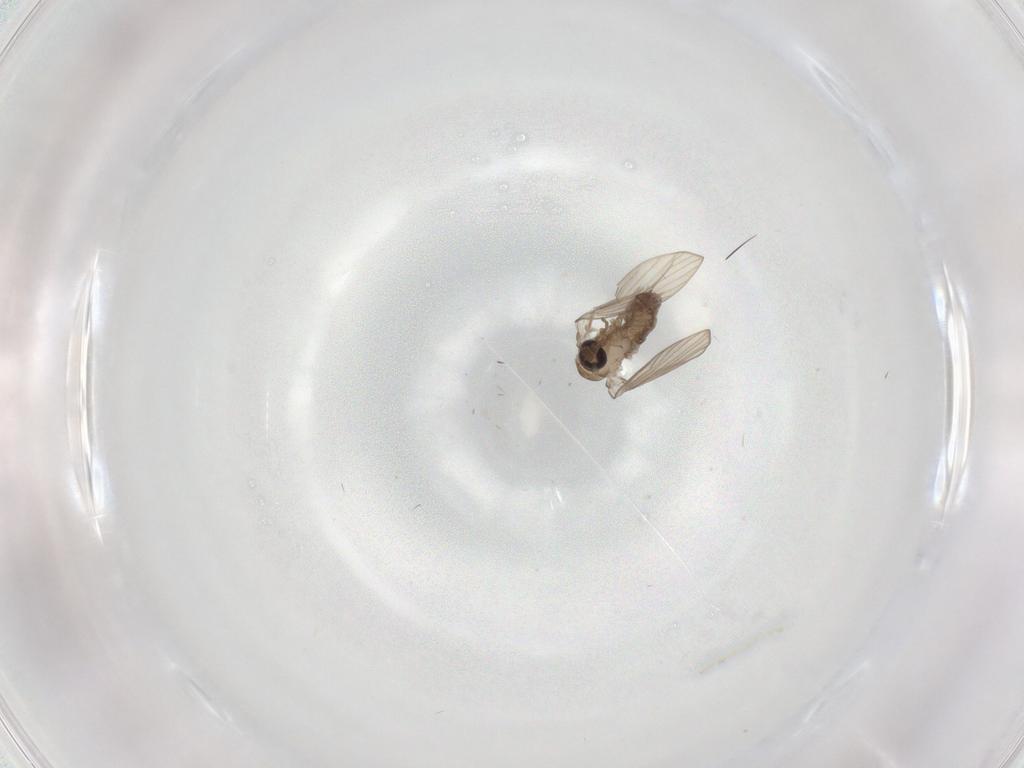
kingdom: Animalia
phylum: Arthropoda
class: Insecta
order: Diptera
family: Psychodidae
